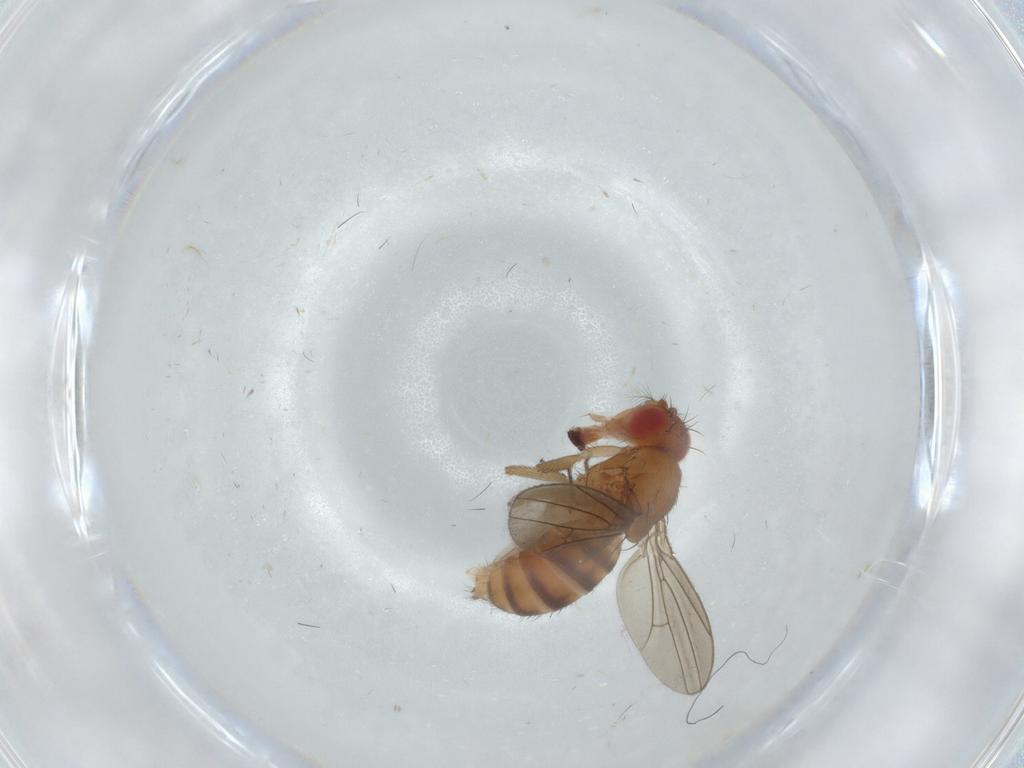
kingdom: Animalia
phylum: Arthropoda
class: Insecta
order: Diptera
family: Drosophilidae
